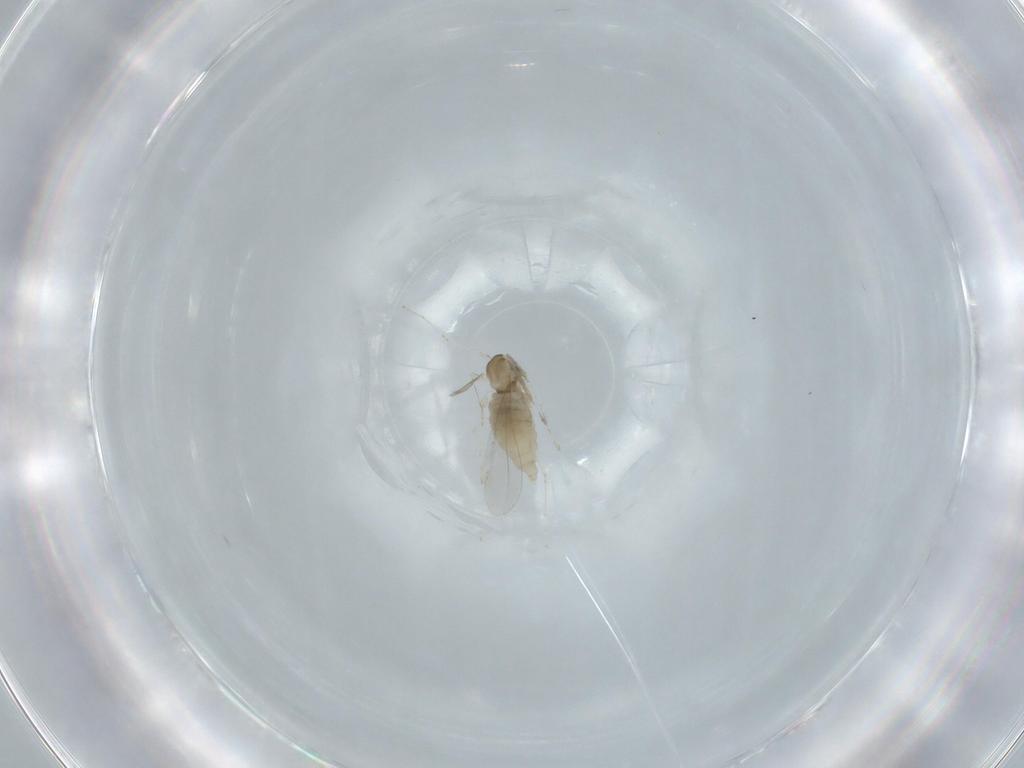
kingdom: Animalia
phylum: Arthropoda
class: Insecta
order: Diptera
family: Cecidomyiidae
